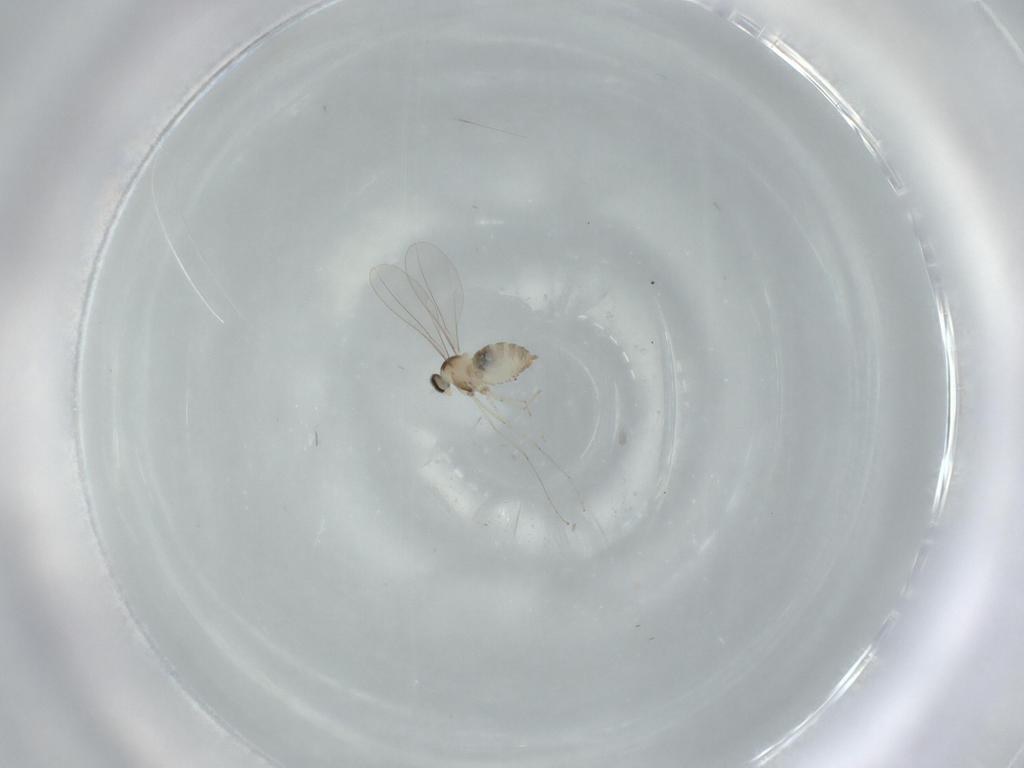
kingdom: Animalia
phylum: Arthropoda
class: Insecta
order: Diptera
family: Cecidomyiidae
